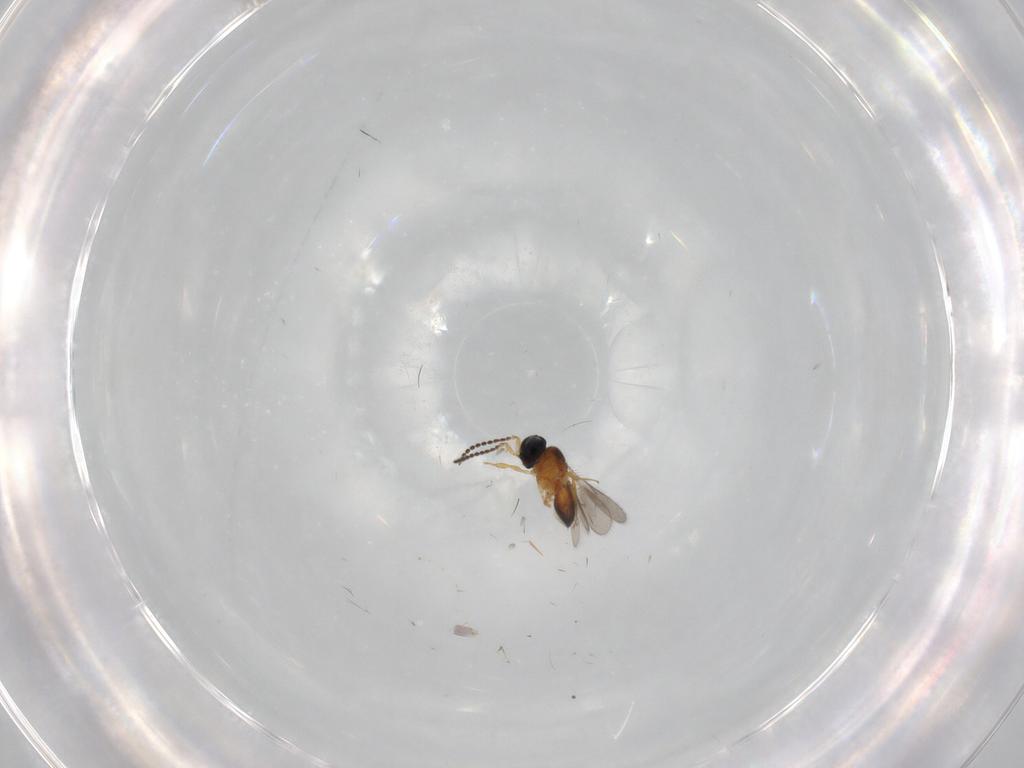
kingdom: Animalia
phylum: Arthropoda
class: Insecta
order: Hymenoptera
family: Scelionidae
